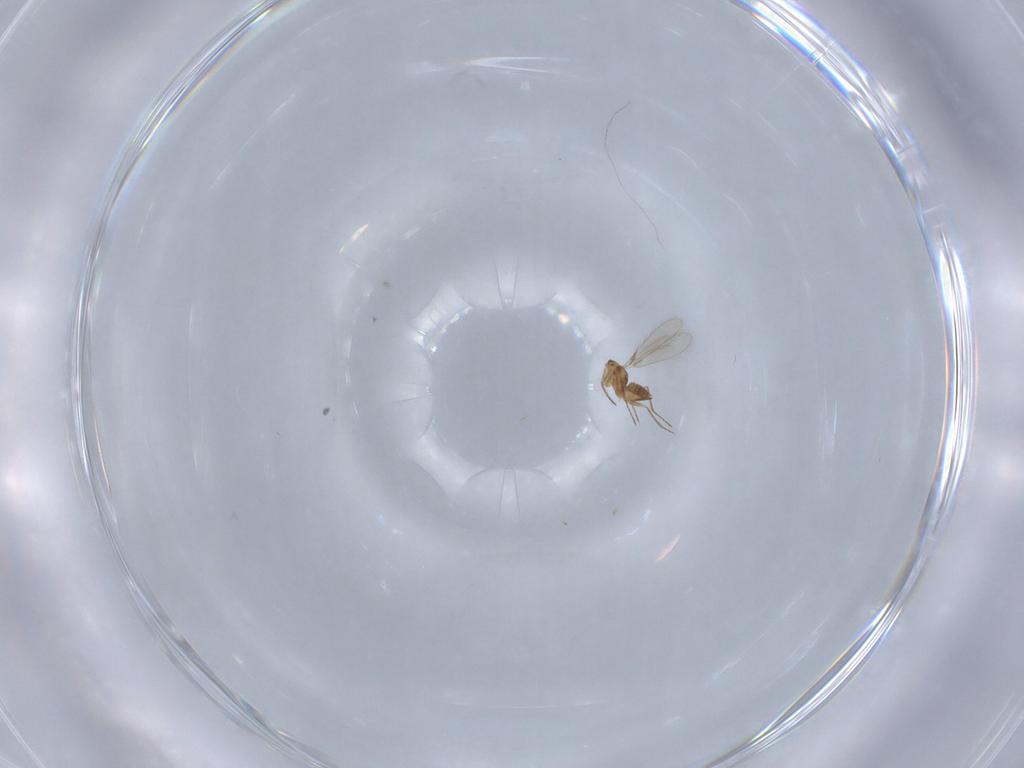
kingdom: Animalia
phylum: Arthropoda
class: Insecta
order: Hymenoptera
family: Mymaridae
